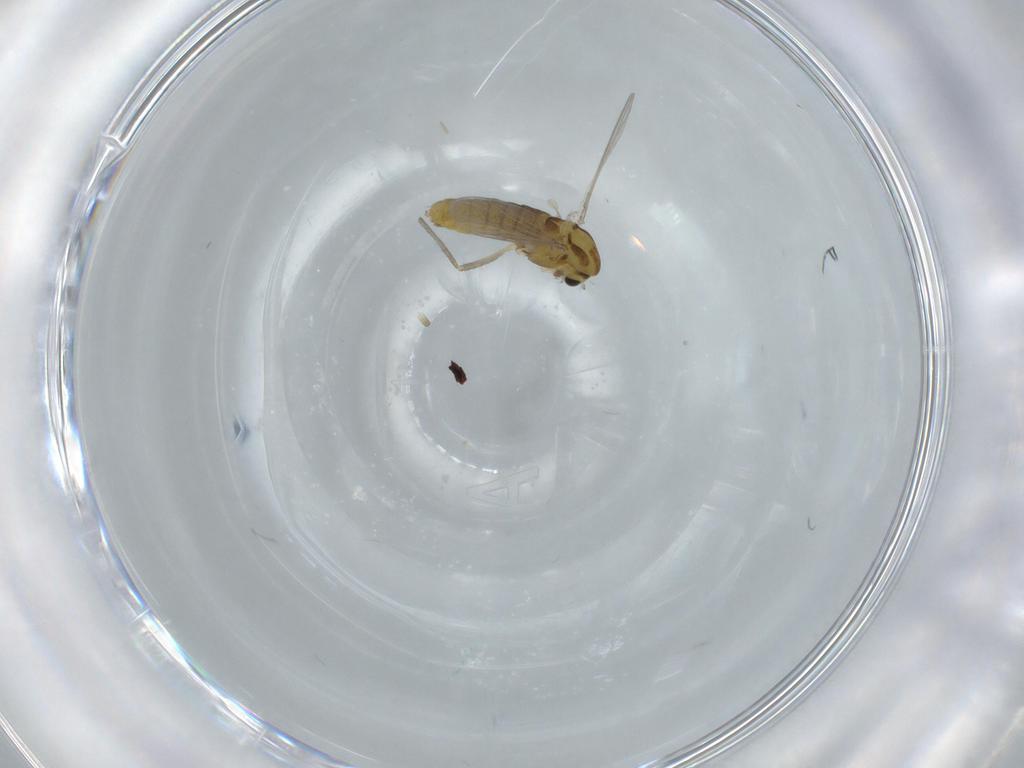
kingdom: Animalia
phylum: Arthropoda
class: Insecta
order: Diptera
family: Chironomidae
